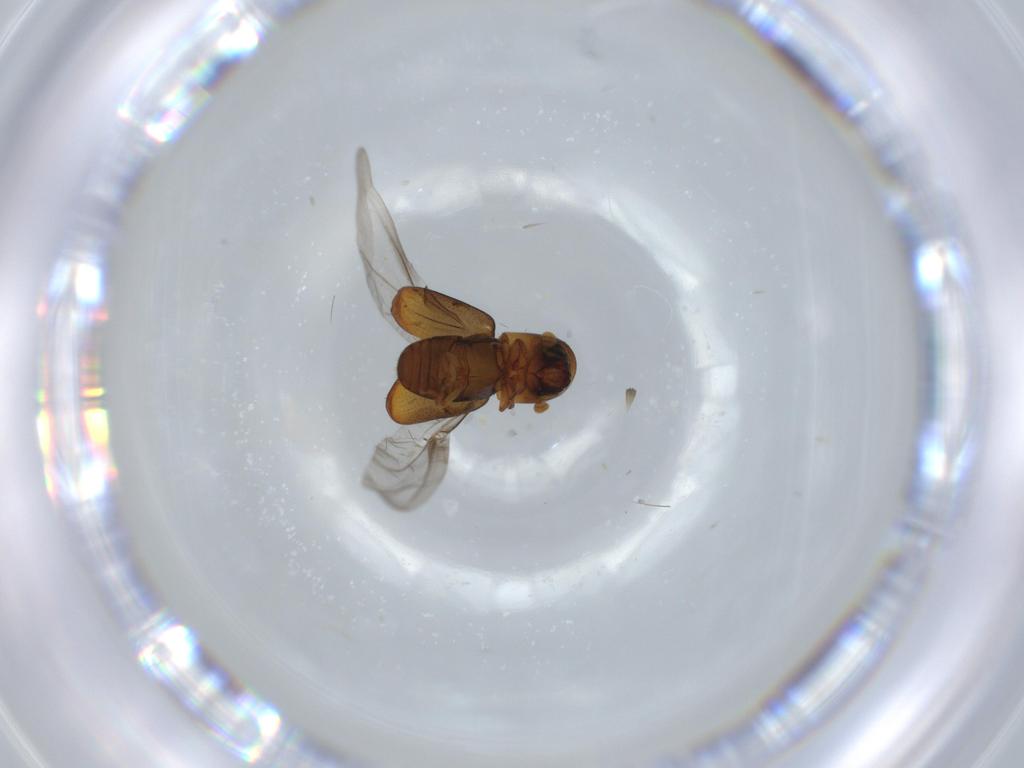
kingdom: Animalia
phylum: Arthropoda
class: Insecta
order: Coleoptera
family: Curculionidae
